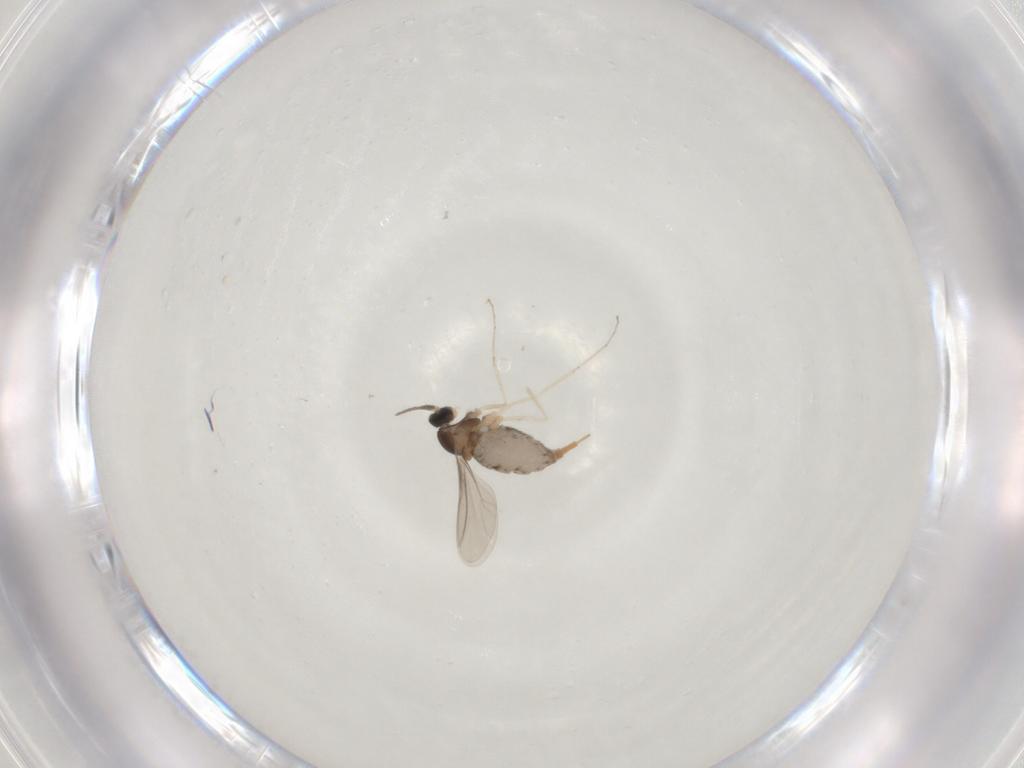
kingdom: Animalia
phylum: Arthropoda
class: Insecta
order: Diptera
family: Cecidomyiidae
